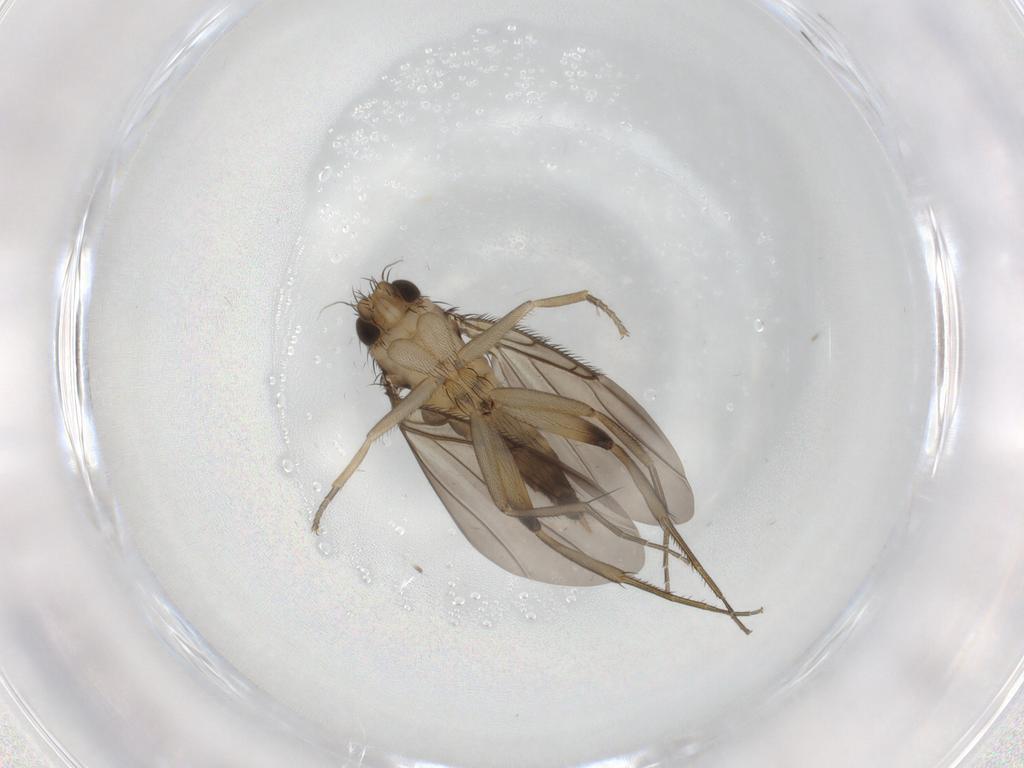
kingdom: Animalia
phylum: Arthropoda
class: Insecta
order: Diptera
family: Phoridae
